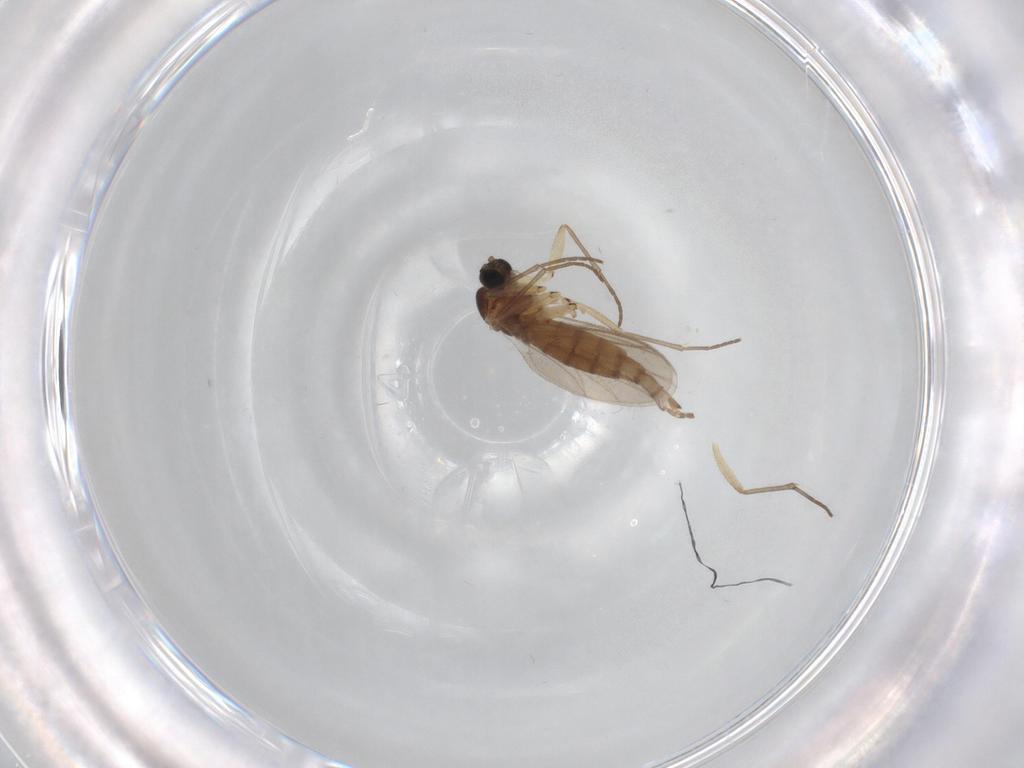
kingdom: Animalia
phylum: Arthropoda
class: Insecta
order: Diptera
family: Sciaridae
